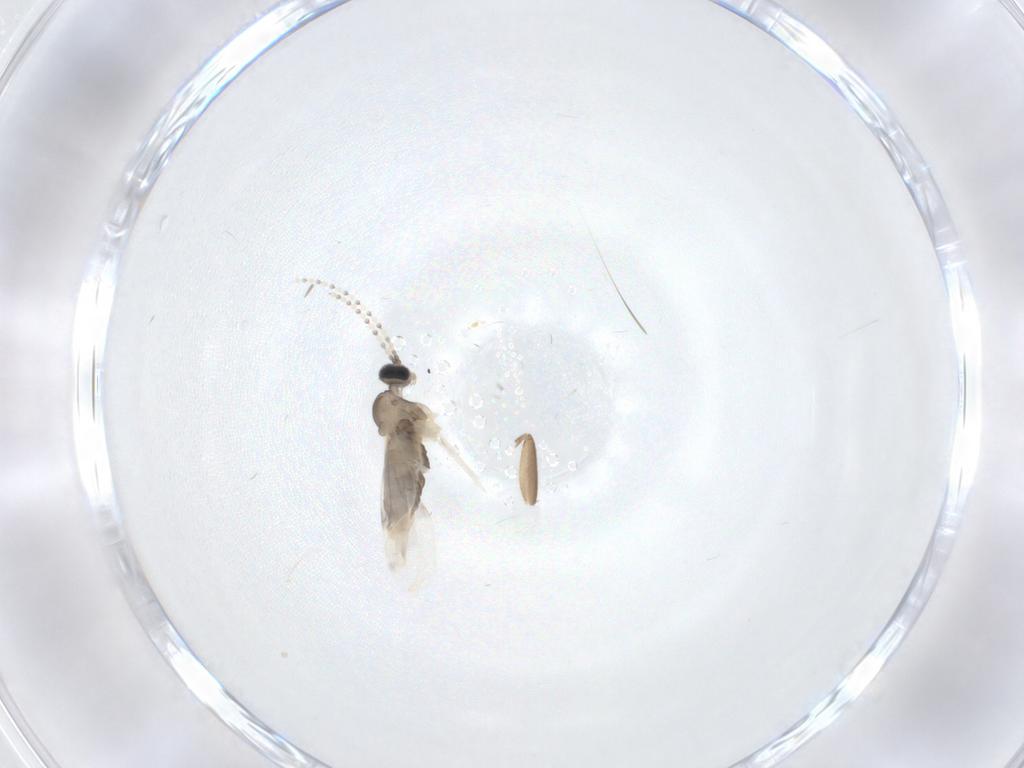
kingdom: Animalia
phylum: Arthropoda
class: Insecta
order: Diptera
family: Cecidomyiidae
